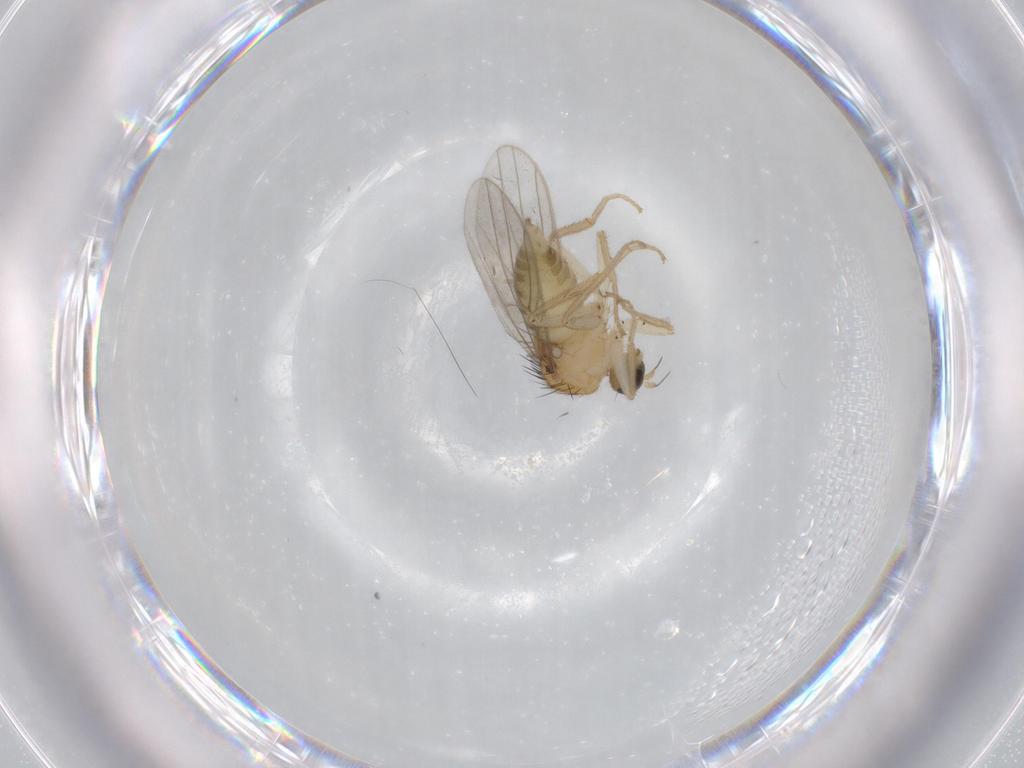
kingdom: Animalia
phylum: Arthropoda
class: Insecta
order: Diptera
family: Hybotidae
